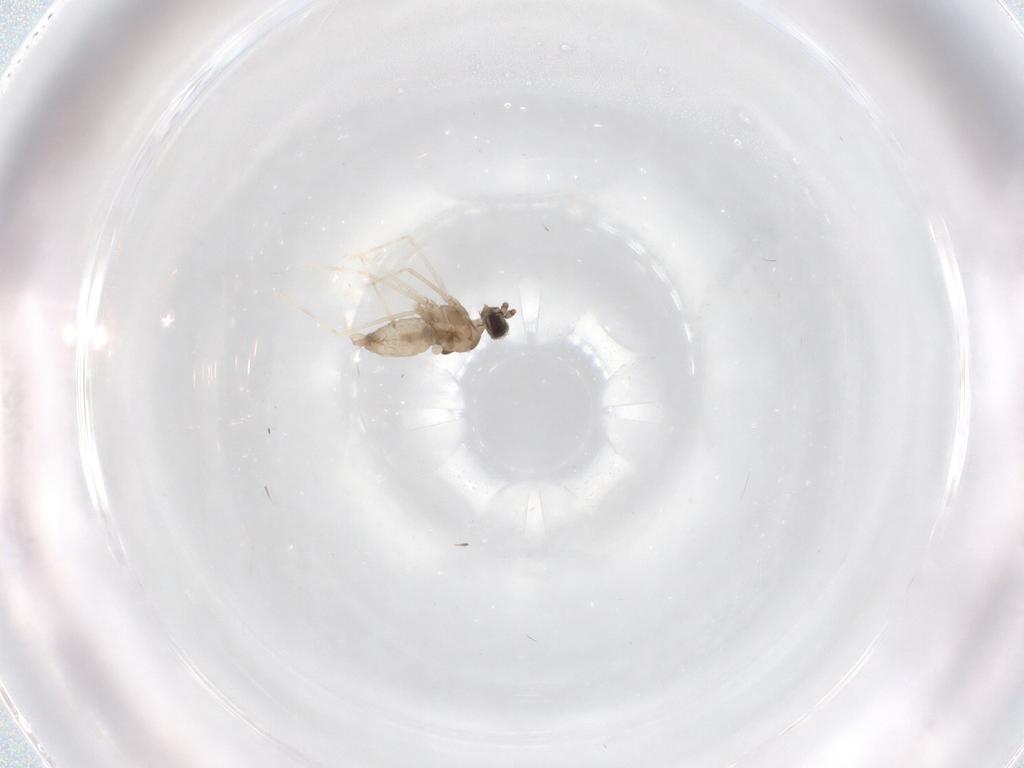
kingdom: Animalia
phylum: Arthropoda
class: Insecta
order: Diptera
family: Cecidomyiidae
